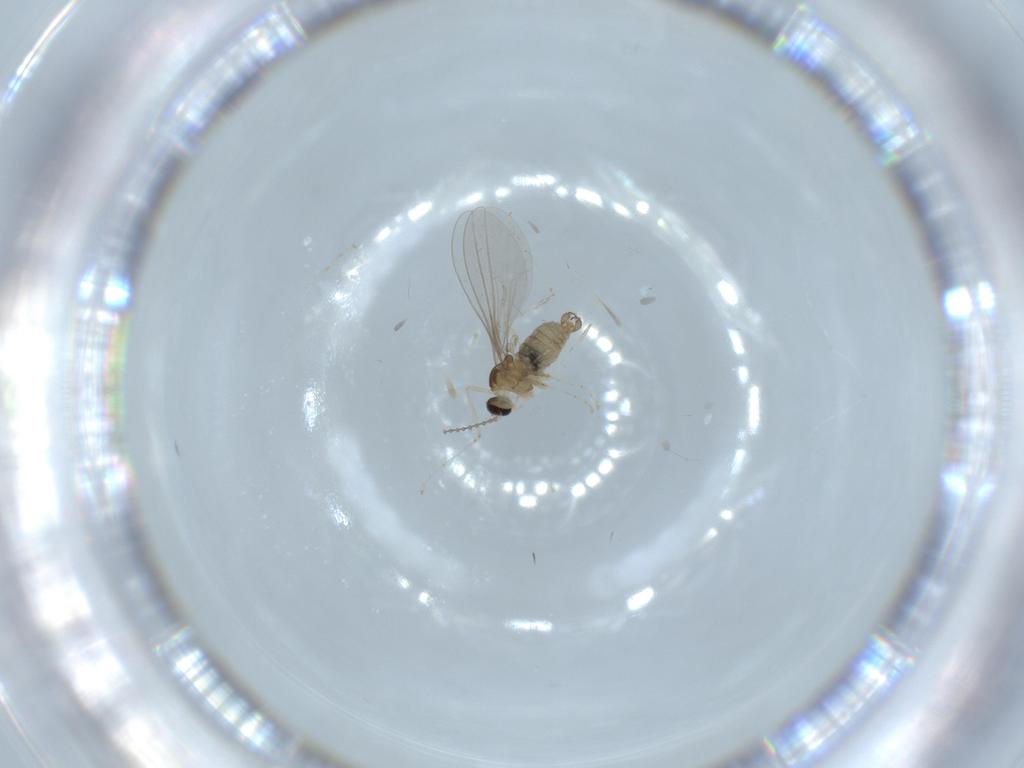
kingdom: Animalia
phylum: Arthropoda
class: Insecta
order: Diptera
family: Cecidomyiidae
